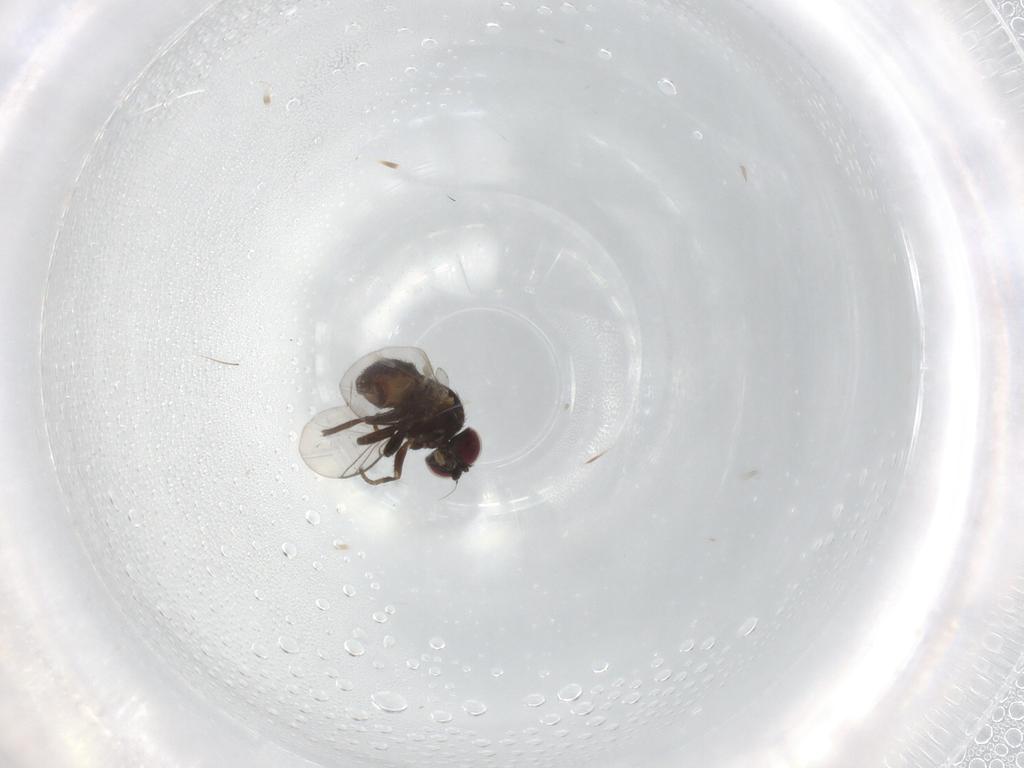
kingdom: Animalia
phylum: Arthropoda
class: Insecta
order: Diptera
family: Agromyzidae
